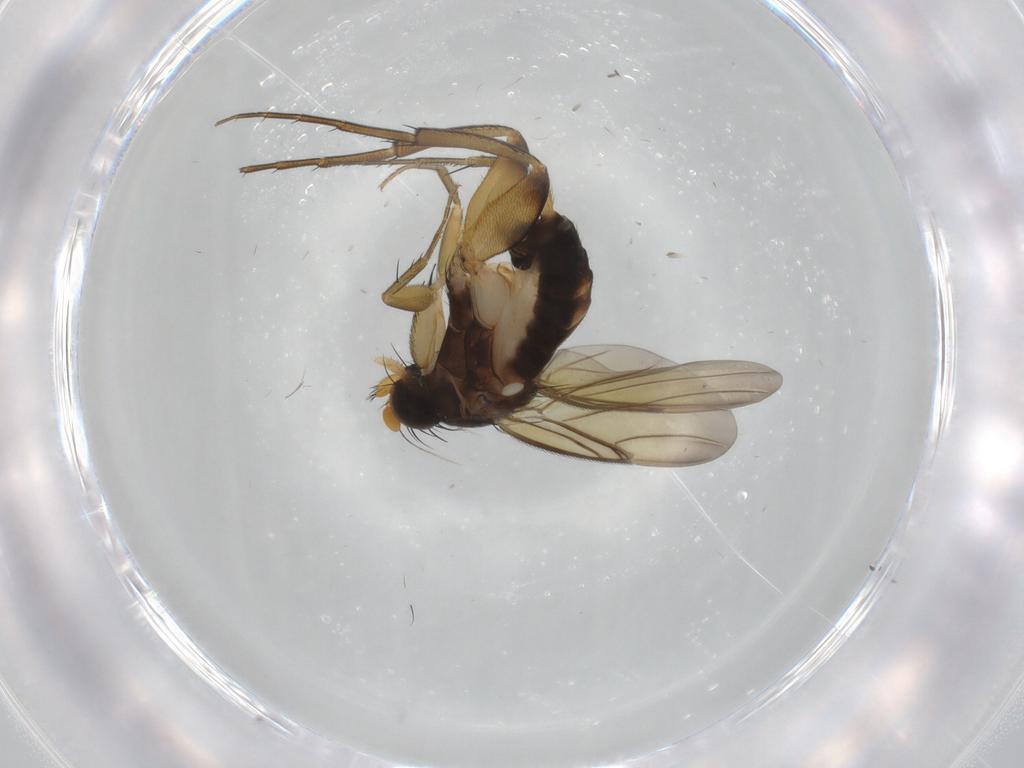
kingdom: Animalia
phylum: Arthropoda
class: Insecta
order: Diptera
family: Phoridae
